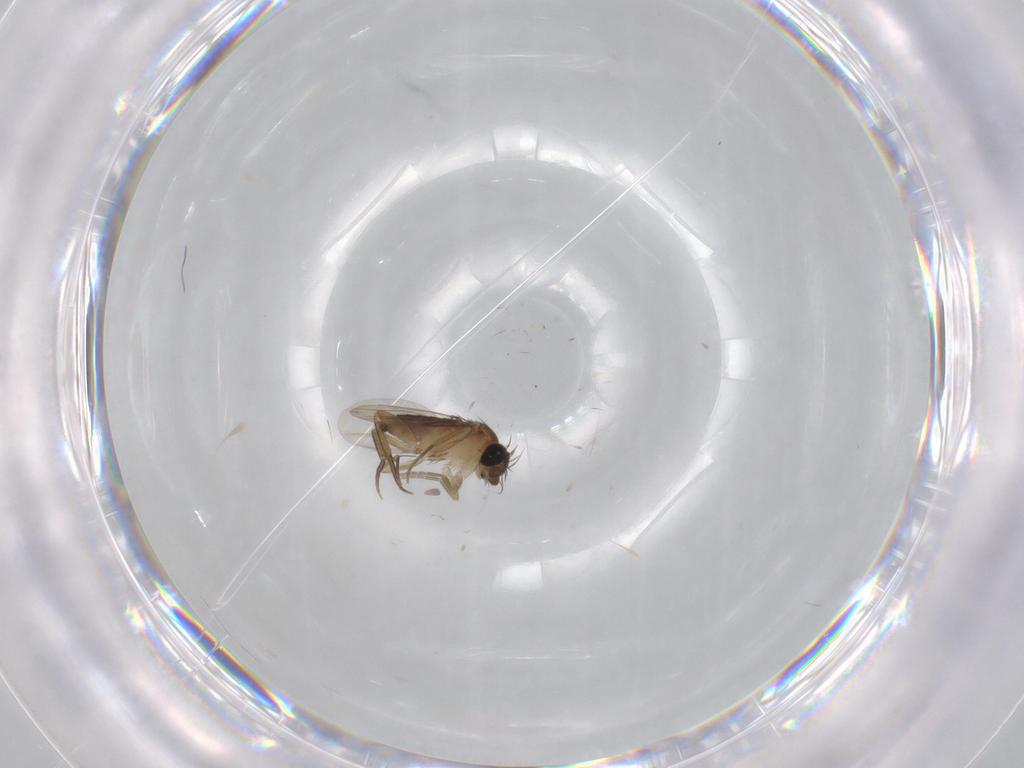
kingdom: Animalia
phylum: Arthropoda
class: Insecta
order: Diptera
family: Phoridae
